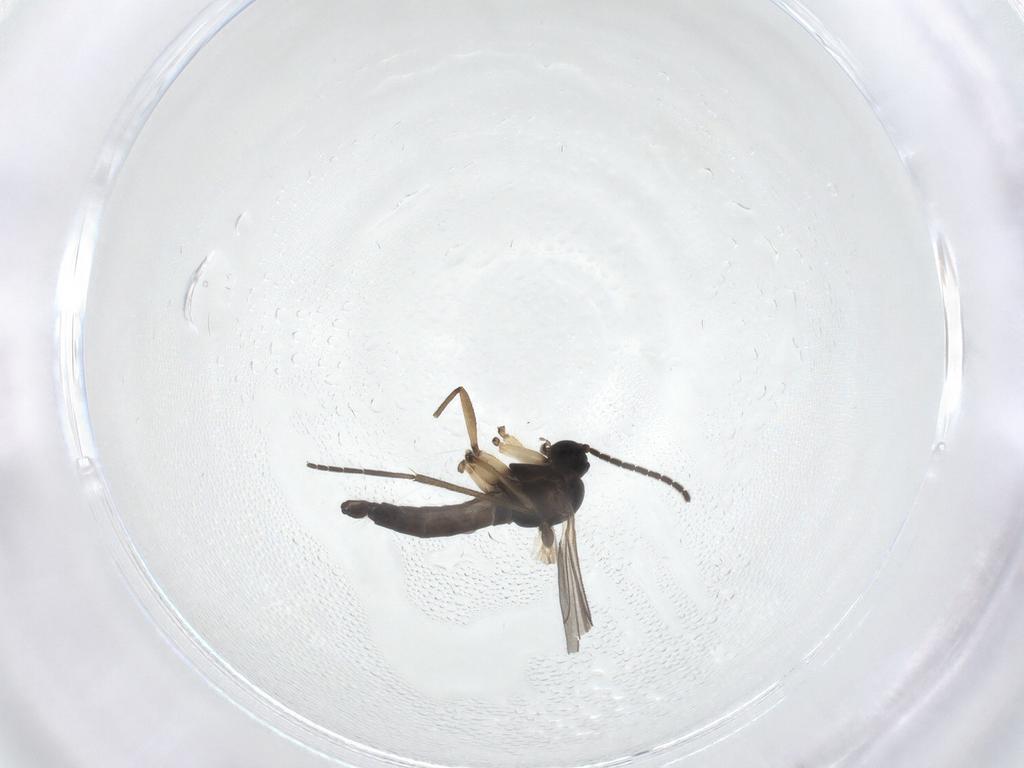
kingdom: Animalia
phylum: Arthropoda
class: Insecta
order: Diptera
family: Sciaridae
